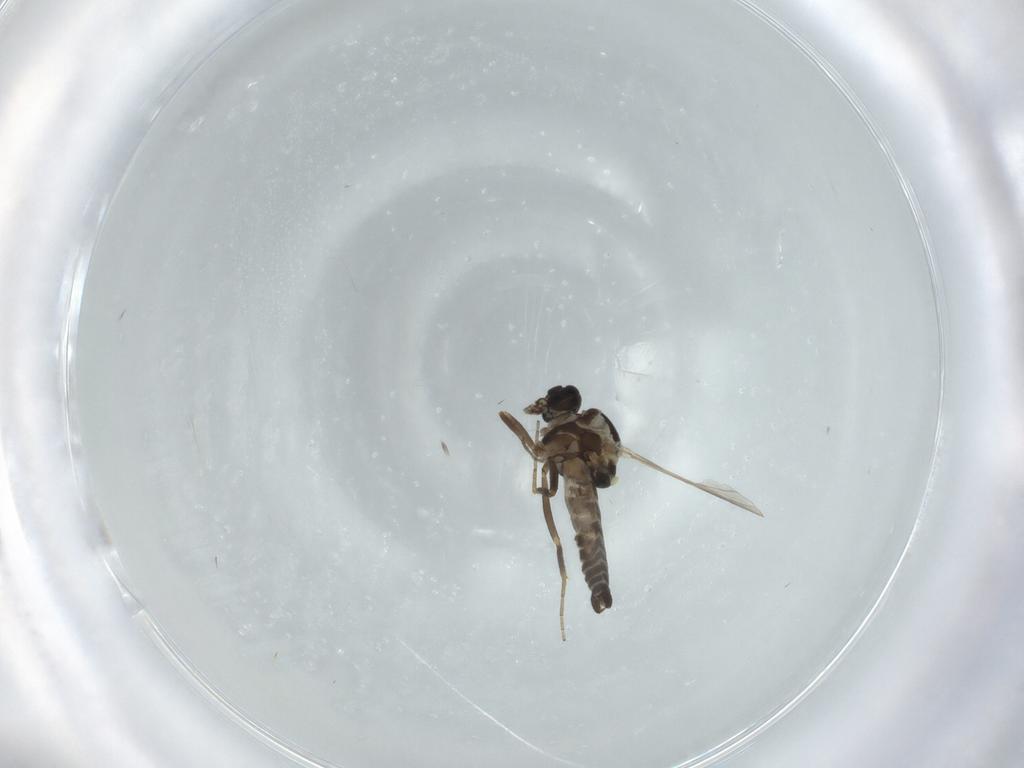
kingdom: Animalia
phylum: Arthropoda
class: Insecta
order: Diptera
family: Ceratopogonidae
